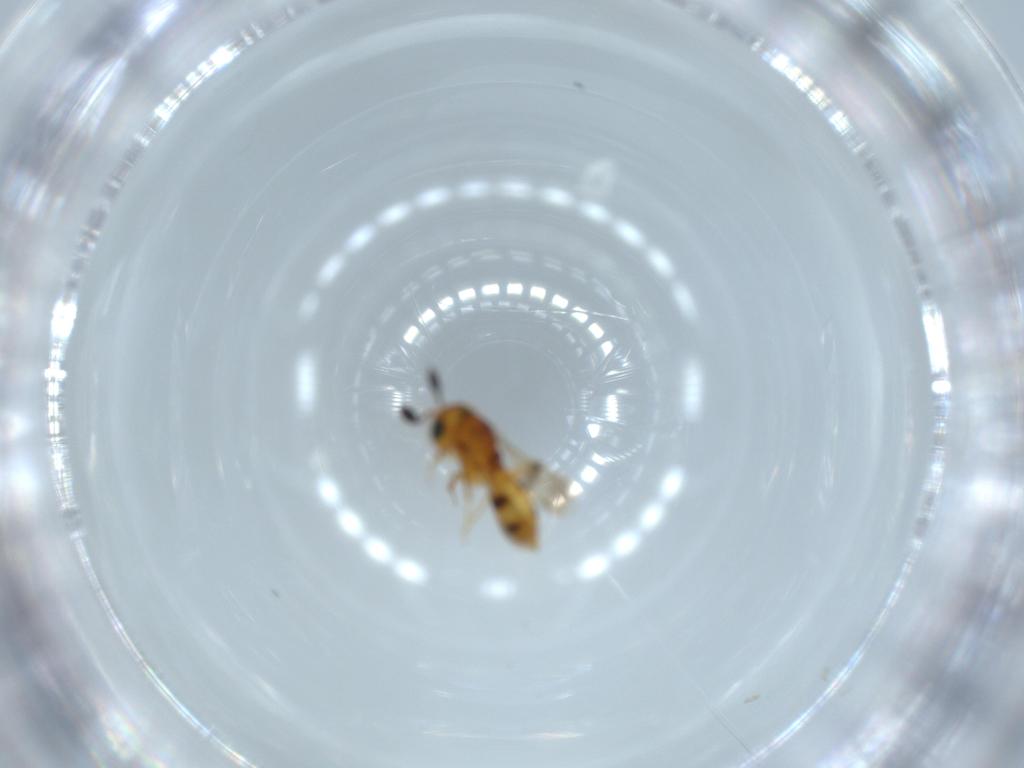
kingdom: Animalia
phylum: Arthropoda
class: Insecta
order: Hymenoptera
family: Scelionidae
